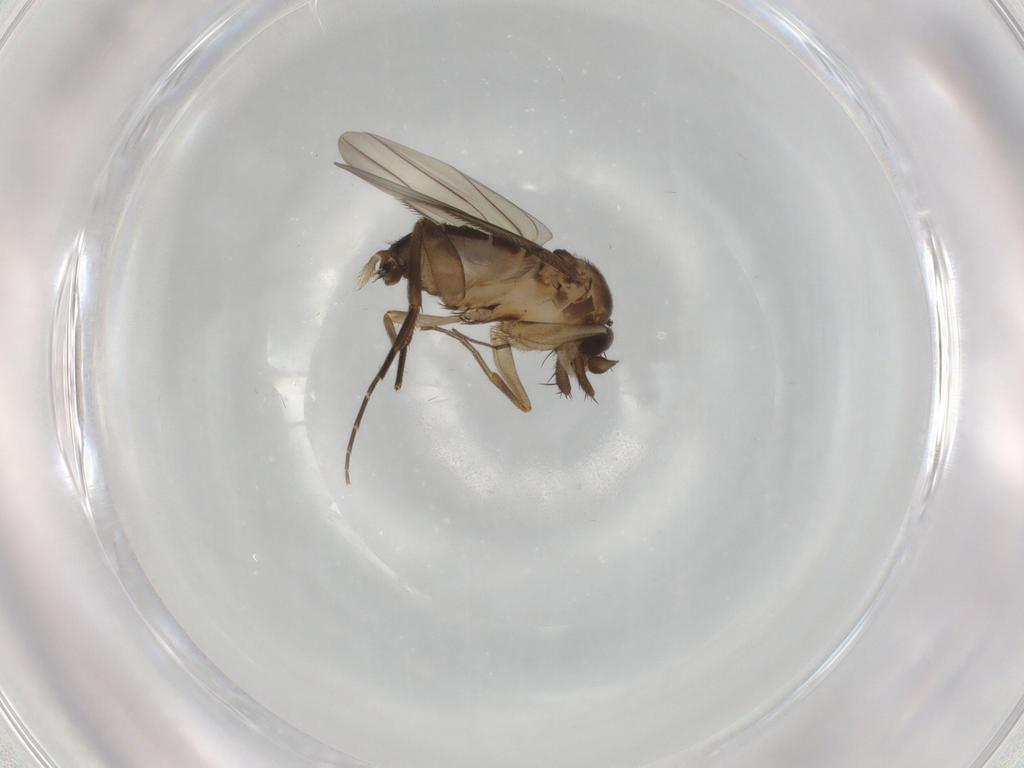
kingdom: Animalia
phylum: Arthropoda
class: Insecta
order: Diptera
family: Phoridae
